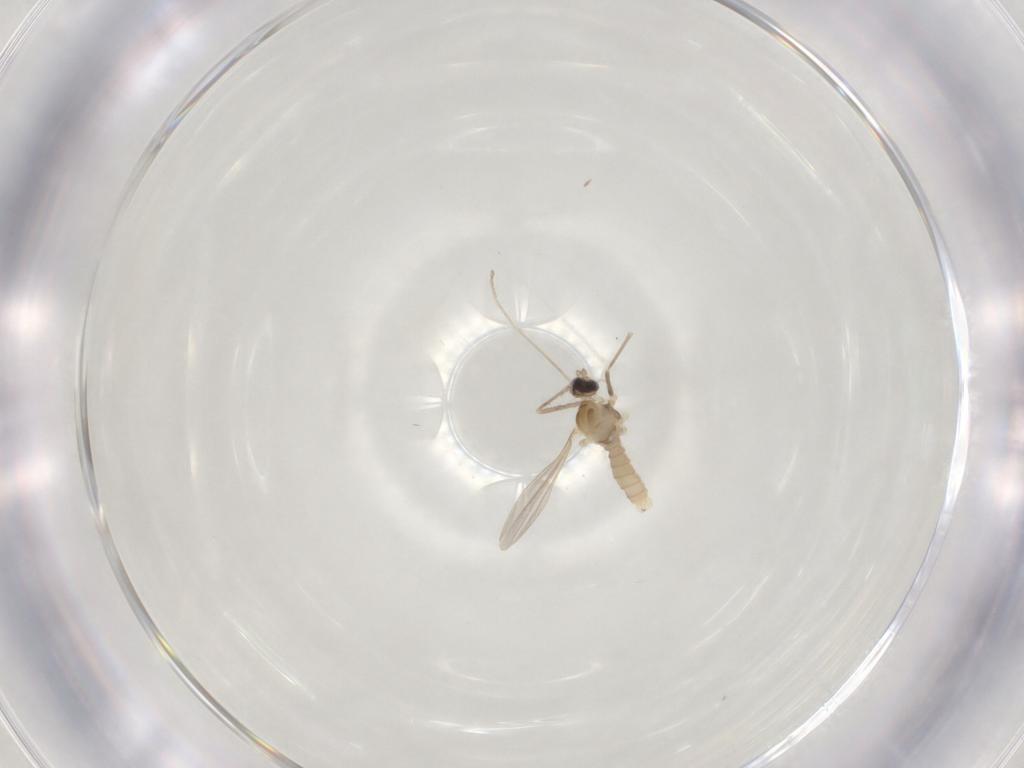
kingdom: Animalia
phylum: Arthropoda
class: Insecta
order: Diptera
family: Cecidomyiidae
